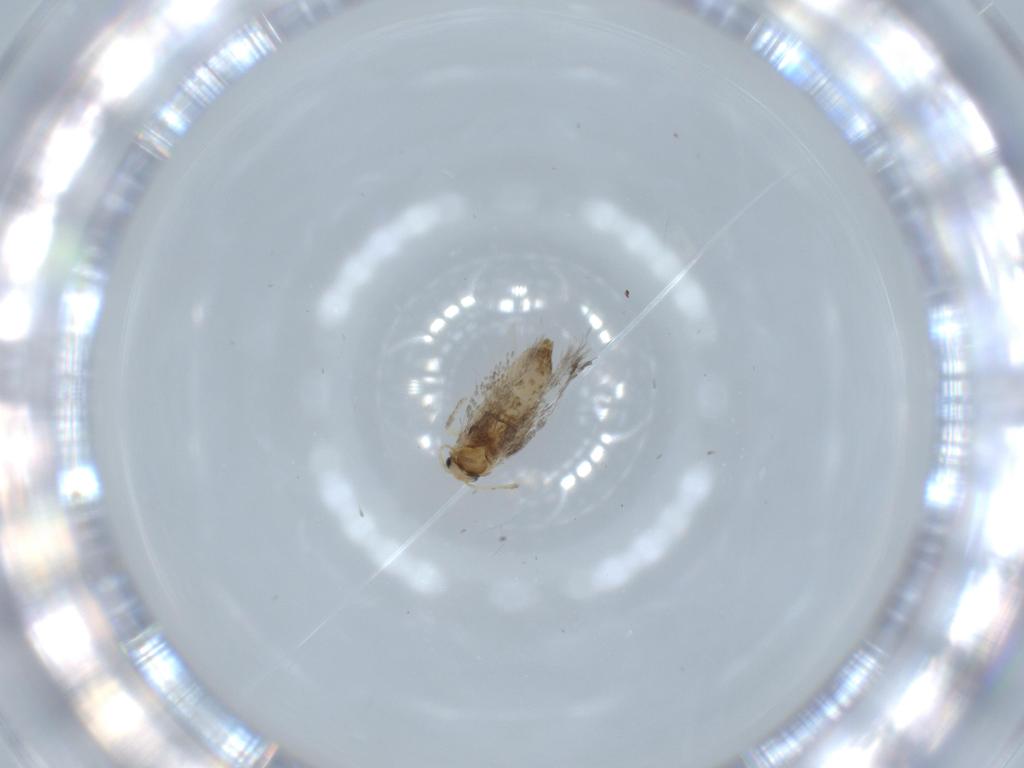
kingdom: Animalia
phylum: Arthropoda
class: Insecta
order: Lepidoptera
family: Nepticulidae
